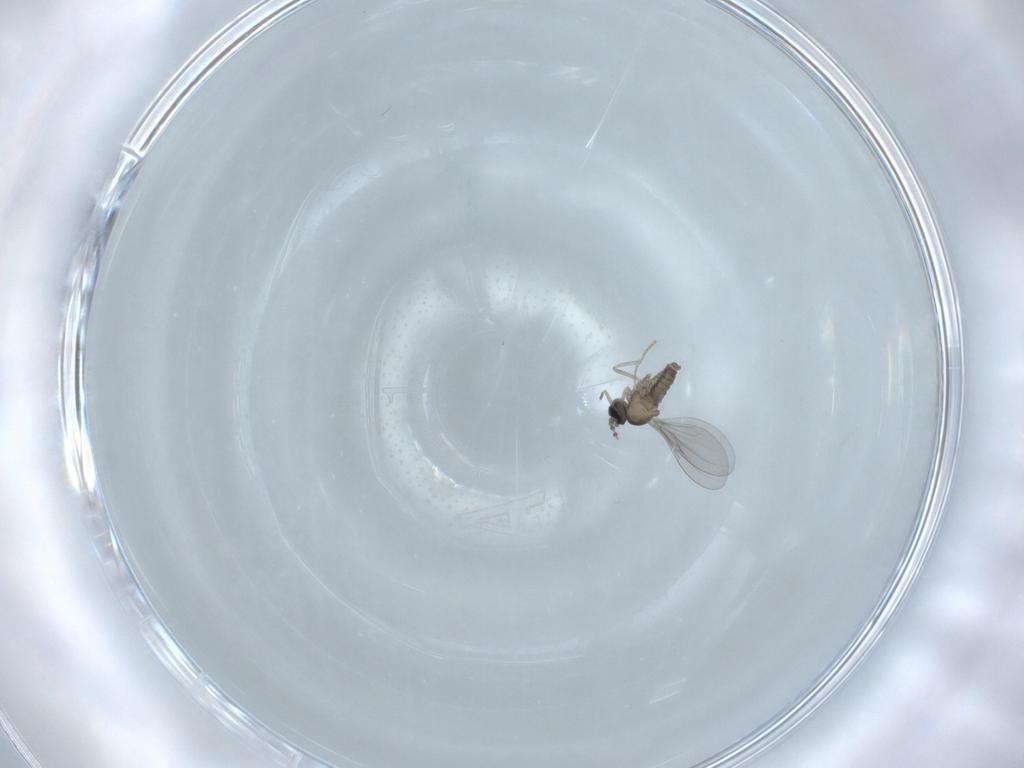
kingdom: Animalia
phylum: Arthropoda
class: Insecta
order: Diptera
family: Cecidomyiidae
